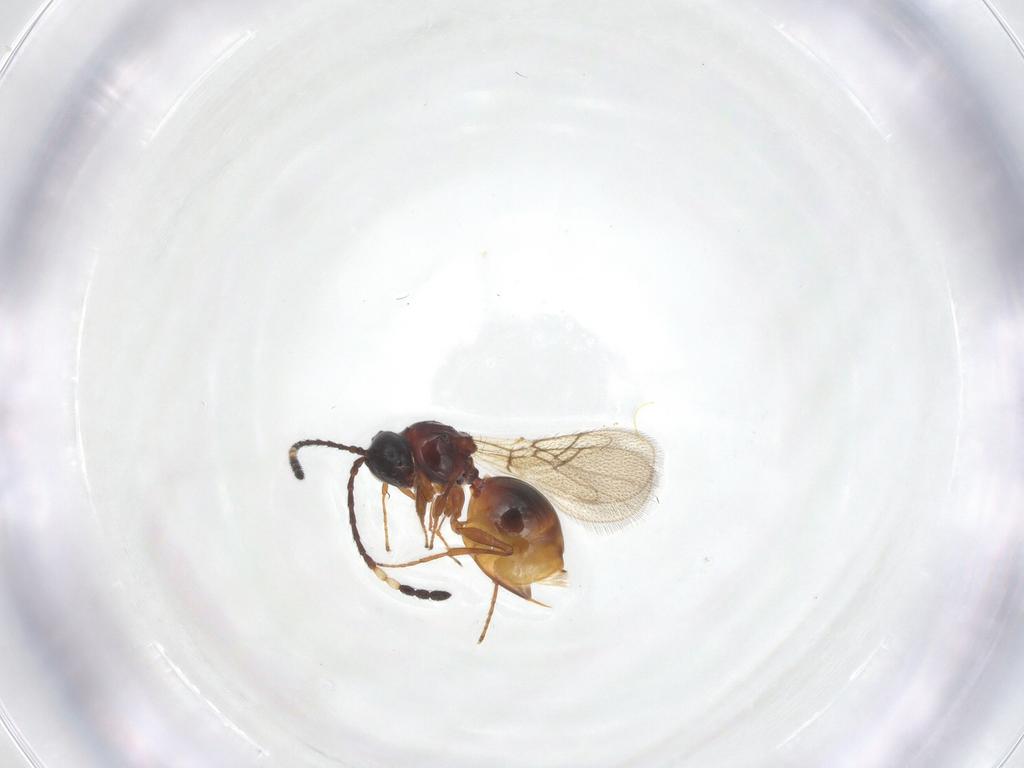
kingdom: Animalia
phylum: Arthropoda
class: Insecta
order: Hymenoptera
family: Figitidae
